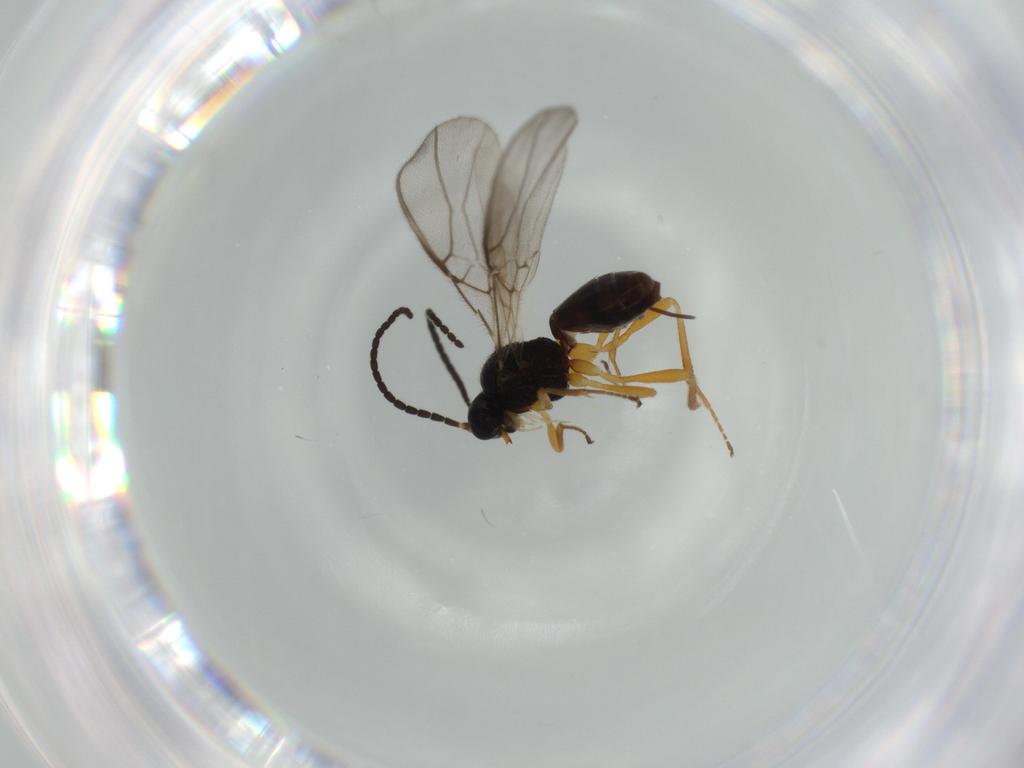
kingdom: Animalia
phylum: Arthropoda
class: Insecta
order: Hymenoptera
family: Braconidae
